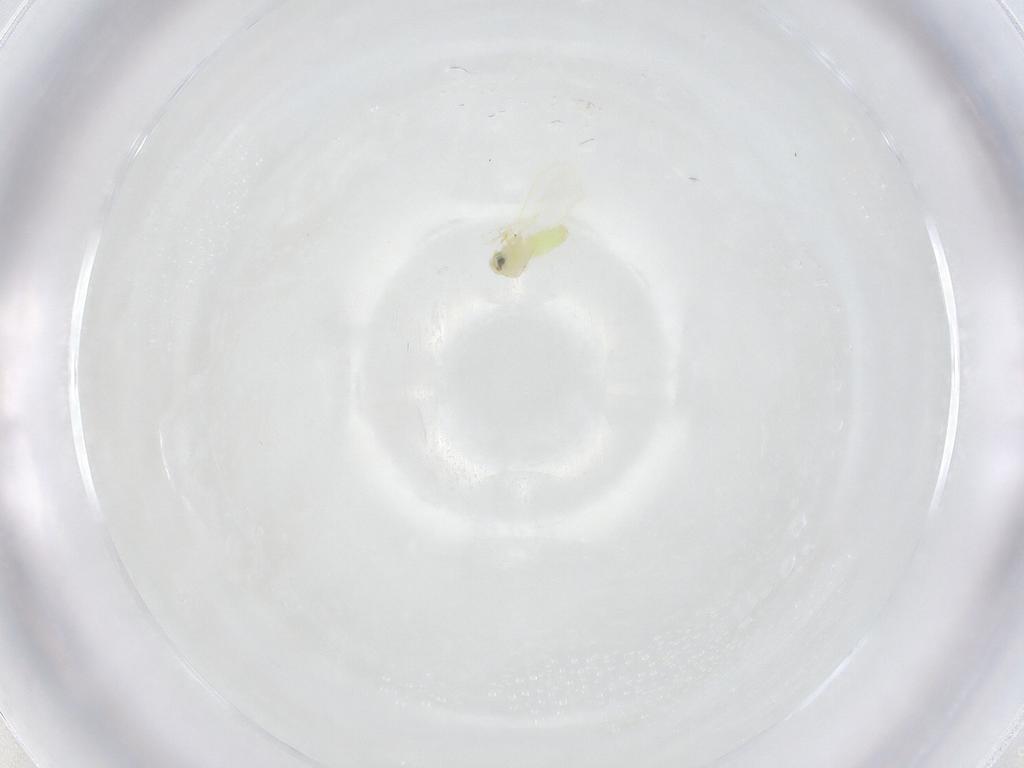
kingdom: Animalia
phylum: Arthropoda
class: Insecta
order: Hemiptera
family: Aleyrodidae
